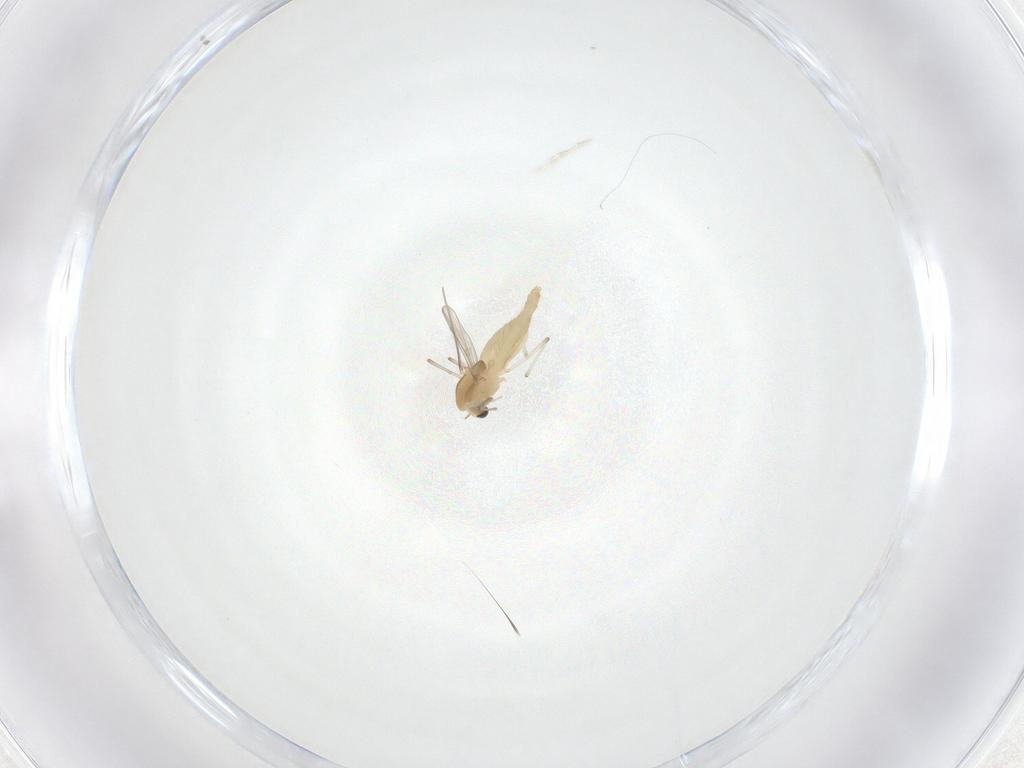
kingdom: Animalia
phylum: Arthropoda
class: Insecta
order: Diptera
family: Chironomidae
